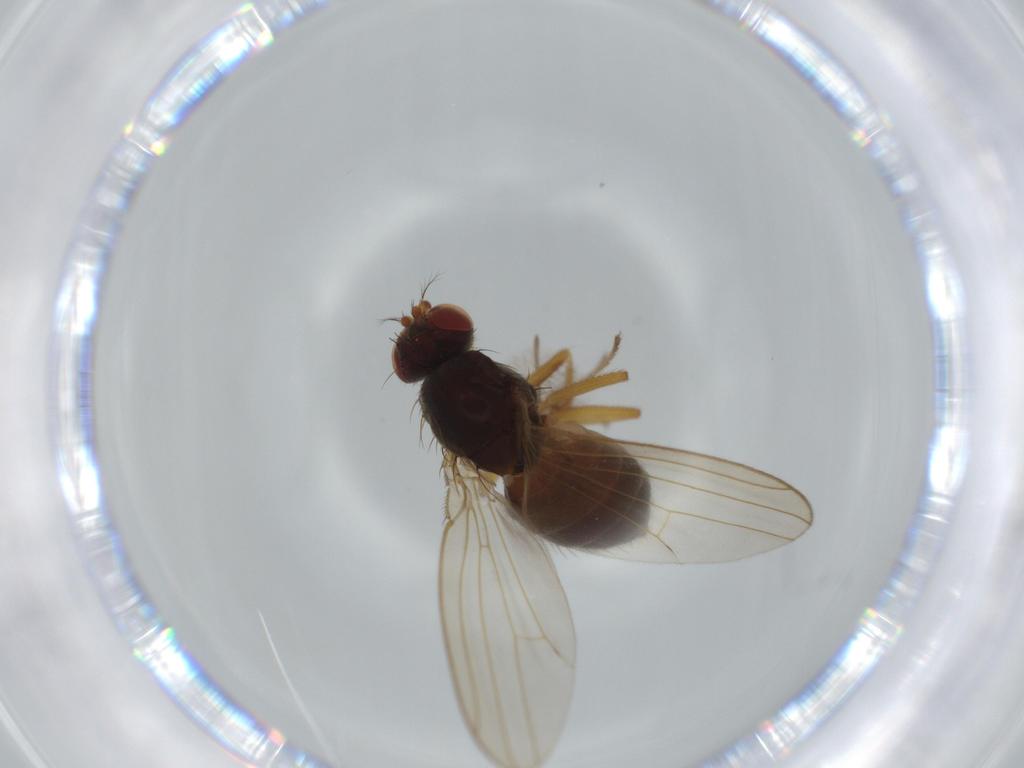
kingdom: Animalia
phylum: Arthropoda
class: Insecta
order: Diptera
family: Drosophilidae
